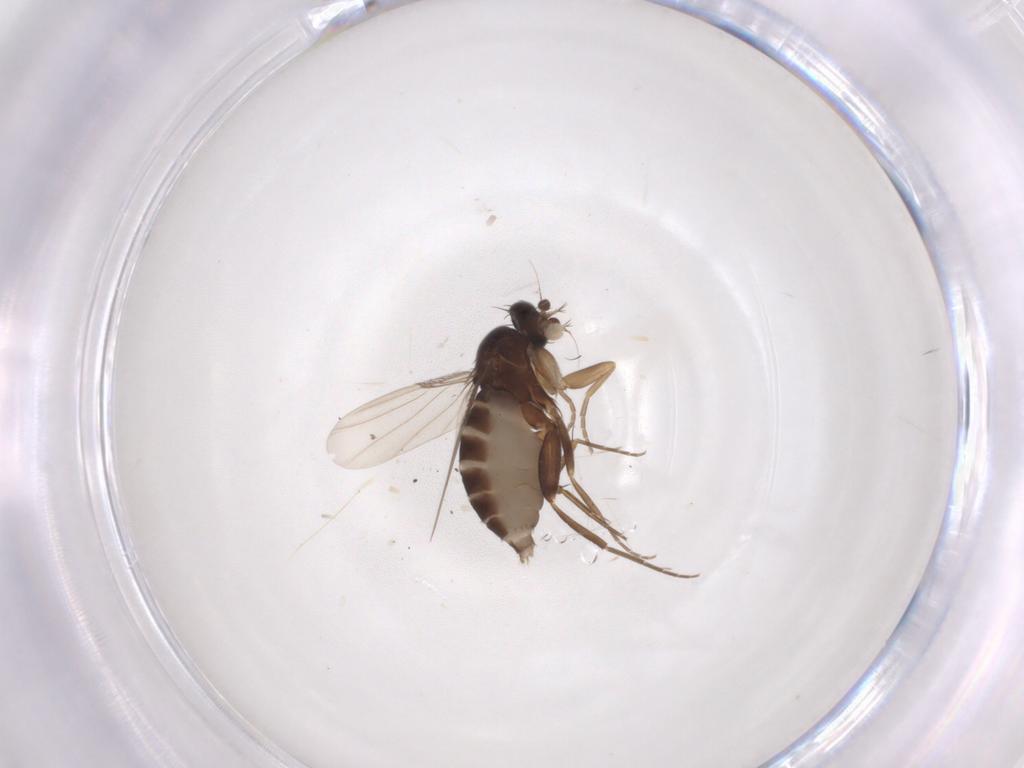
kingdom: Animalia
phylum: Arthropoda
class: Insecta
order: Diptera
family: Phoridae
